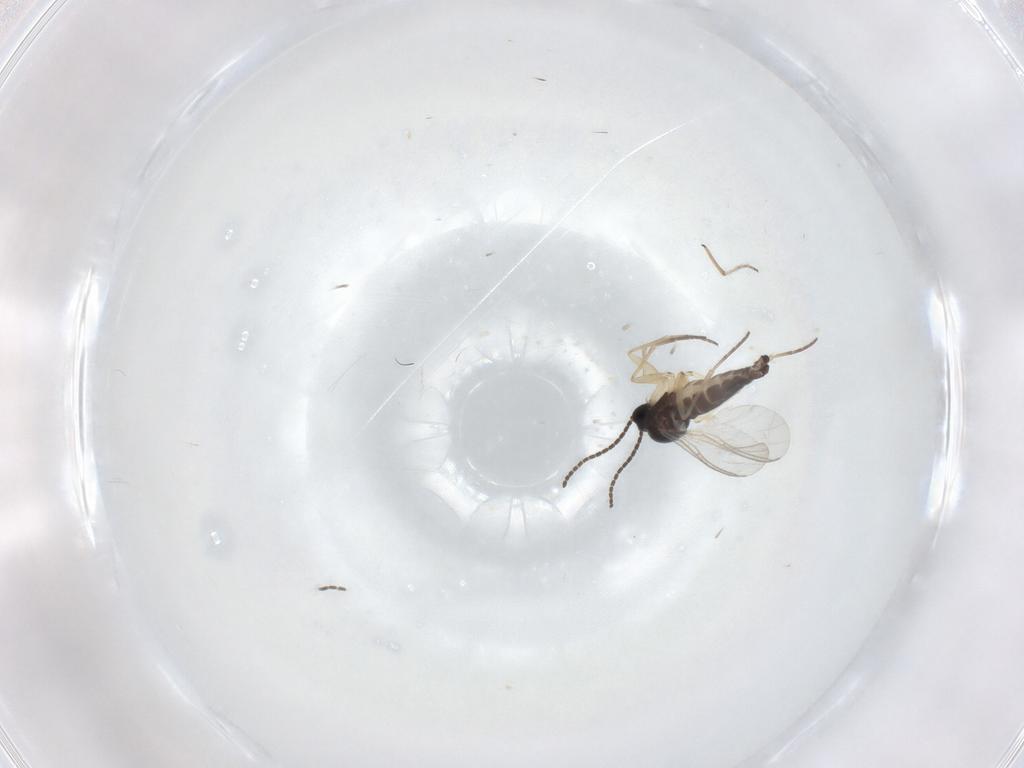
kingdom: Animalia
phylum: Arthropoda
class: Insecta
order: Diptera
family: Sciaridae
